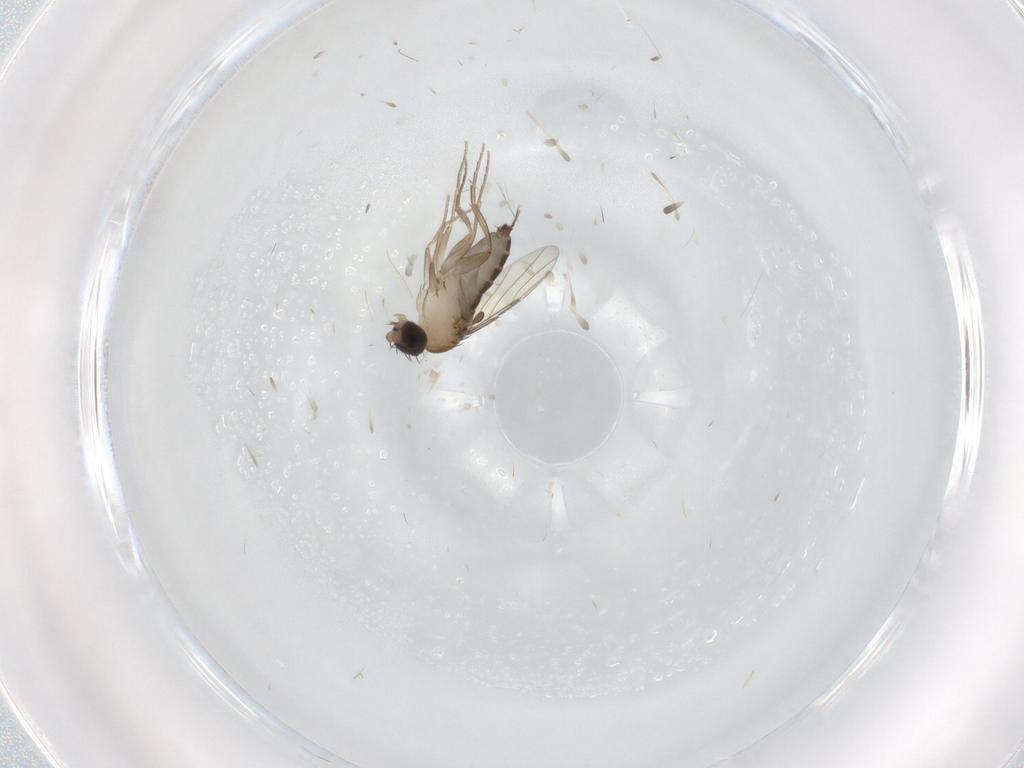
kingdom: Animalia
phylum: Arthropoda
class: Insecta
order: Diptera
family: Phoridae
